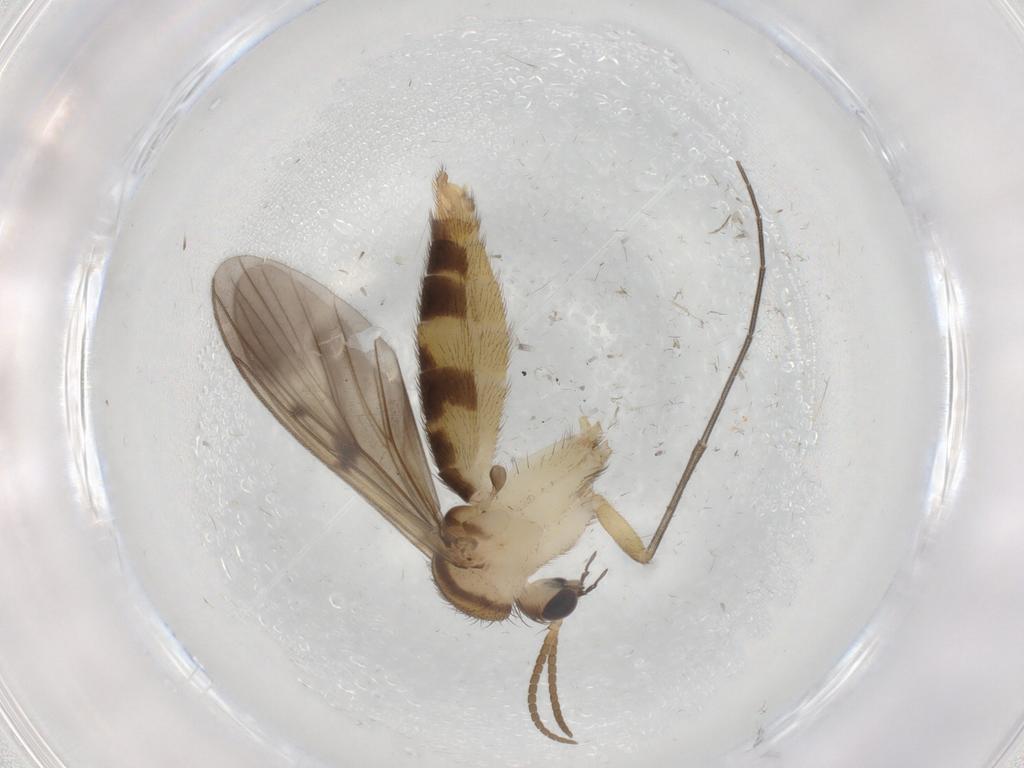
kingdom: Animalia
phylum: Arthropoda
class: Insecta
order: Diptera
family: Mycetophilidae
